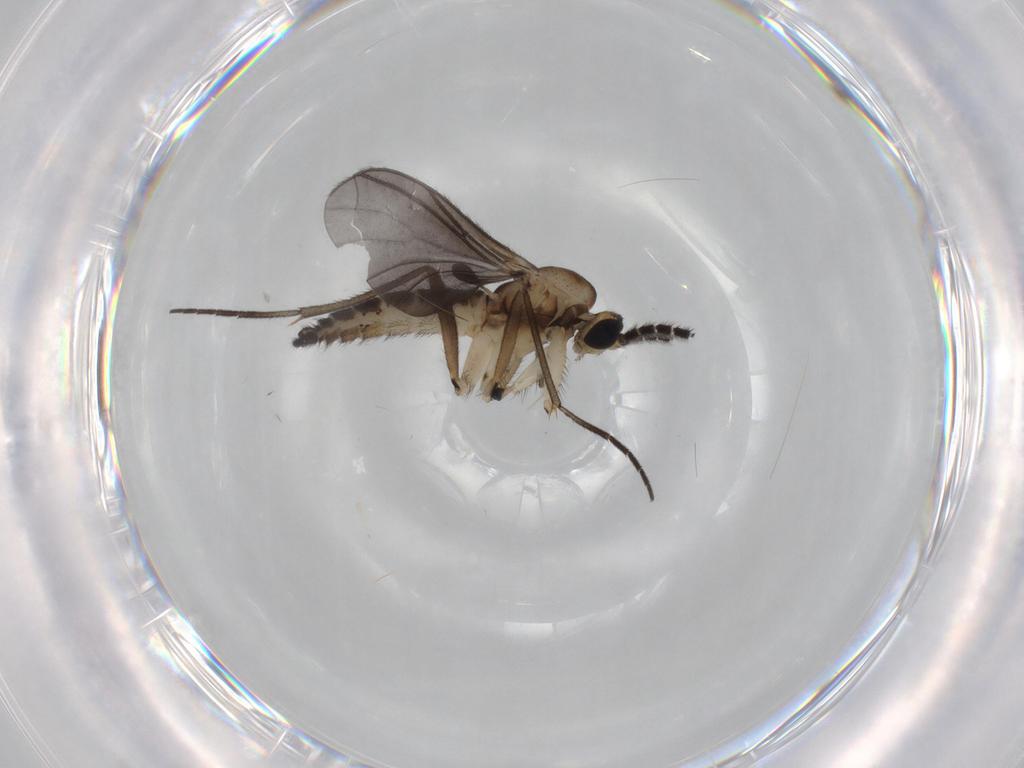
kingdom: Animalia
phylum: Arthropoda
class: Insecta
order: Diptera
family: Sciaridae
